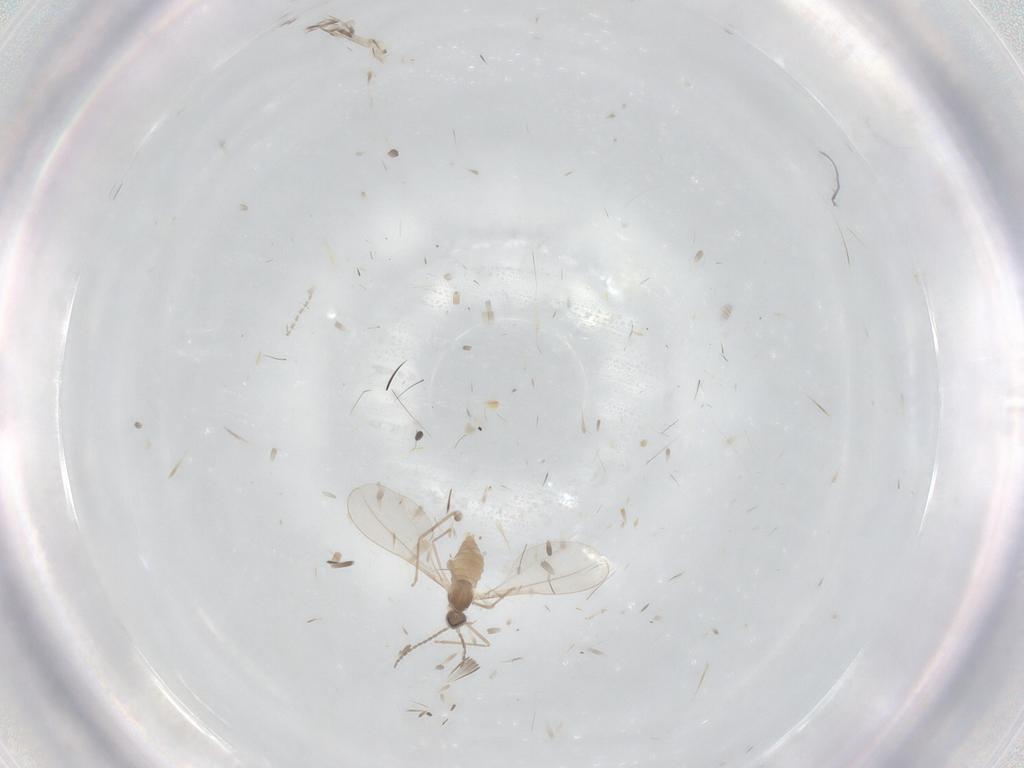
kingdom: Animalia
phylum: Arthropoda
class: Insecta
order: Diptera
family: Cecidomyiidae
